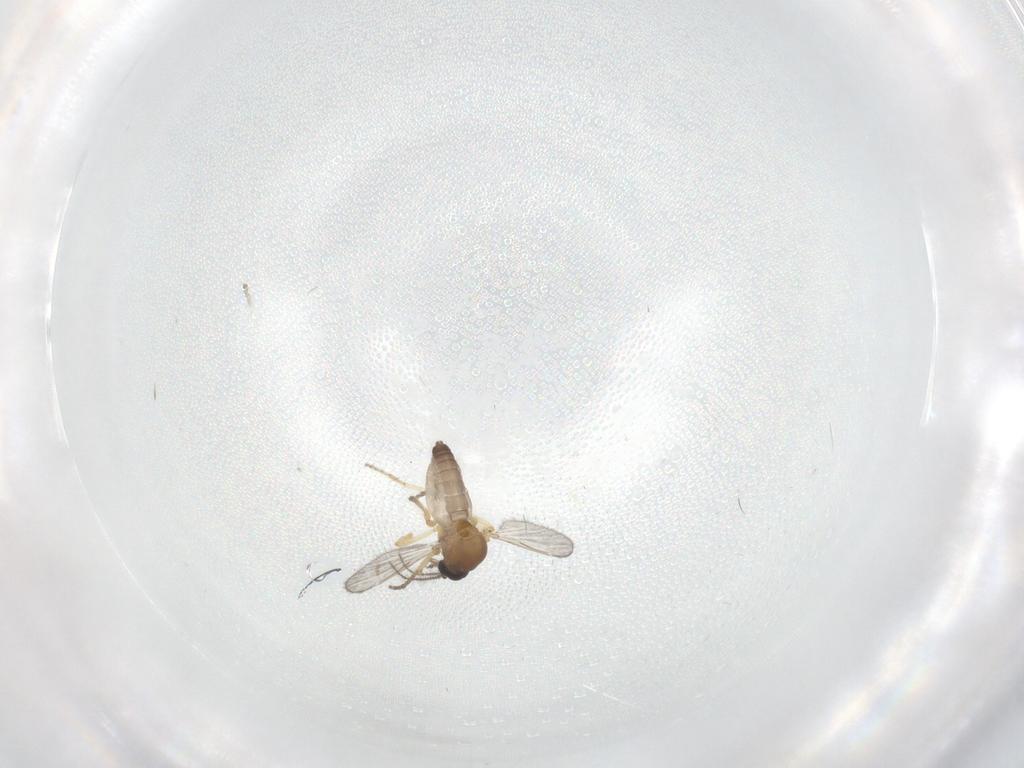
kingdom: Animalia
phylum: Arthropoda
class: Insecta
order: Diptera
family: Ceratopogonidae
